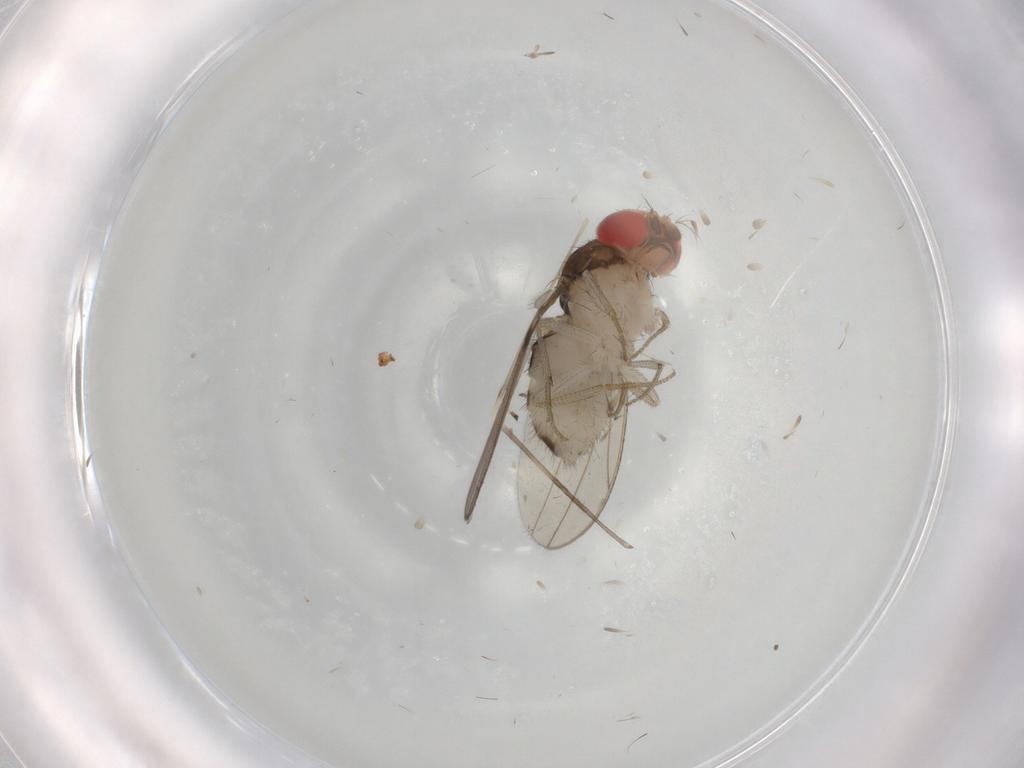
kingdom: Animalia
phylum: Arthropoda
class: Insecta
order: Diptera
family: Drosophilidae
